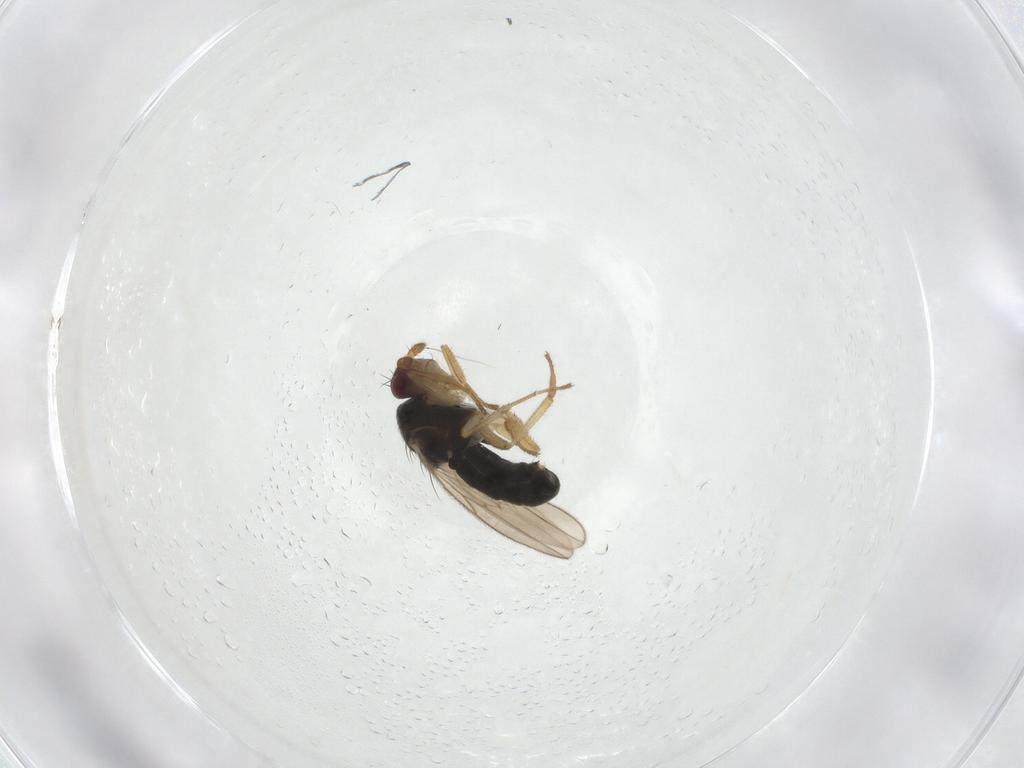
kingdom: Animalia
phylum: Arthropoda
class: Insecta
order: Diptera
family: Sphaeroceridae
